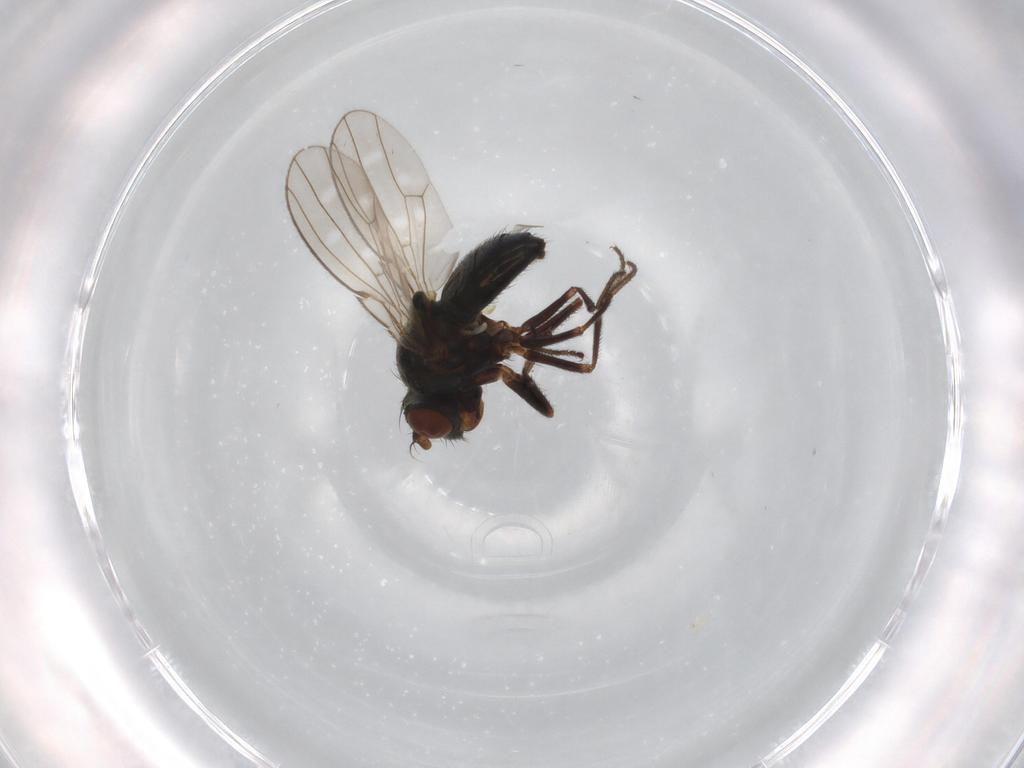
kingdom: Animalia
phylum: Arthropoda
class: Insecta
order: Diptera
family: Ephydridae
